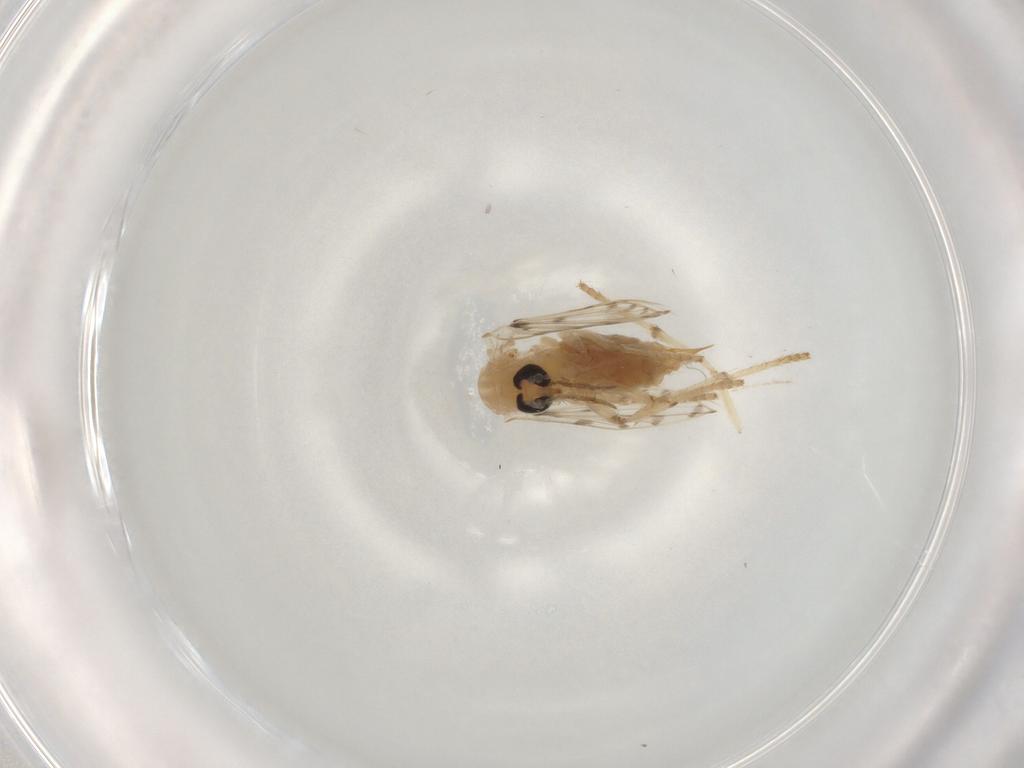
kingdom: Animalia
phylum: Arthropoda
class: Insecta
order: Diptera
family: Psychodidae
